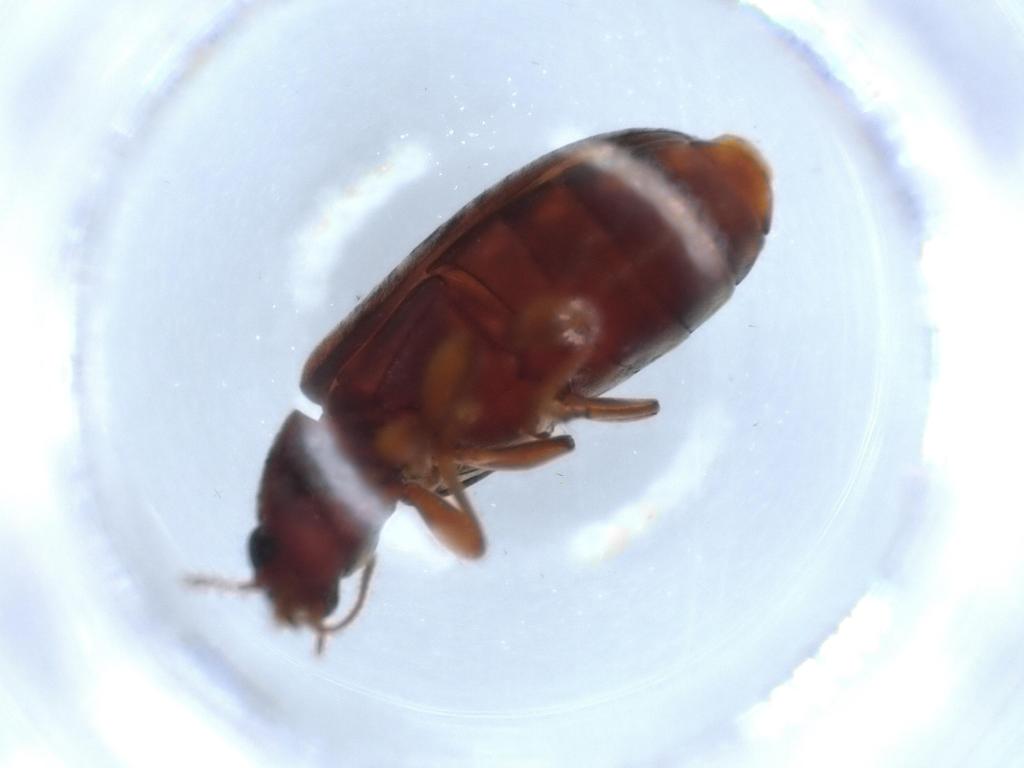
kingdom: Animalia
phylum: Arthropoda
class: Insecta
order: Coleoptera
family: Mycteridae
